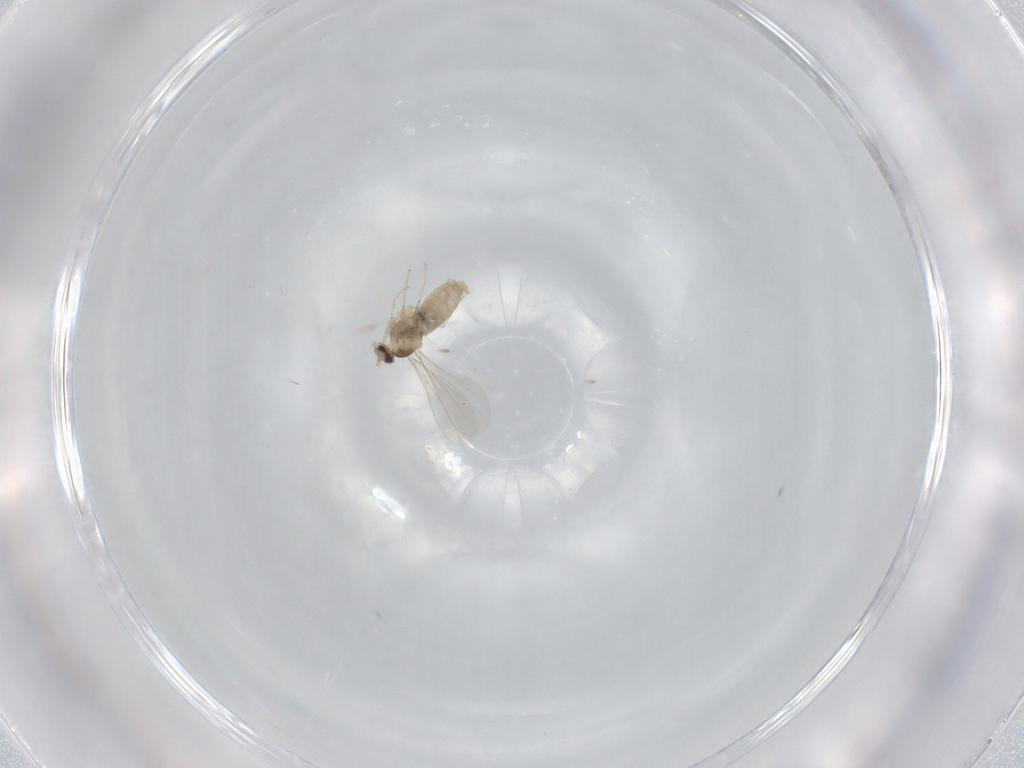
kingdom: Animalia
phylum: Arthropoda
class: Insecta
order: Diptera
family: Cecidomyiidae
